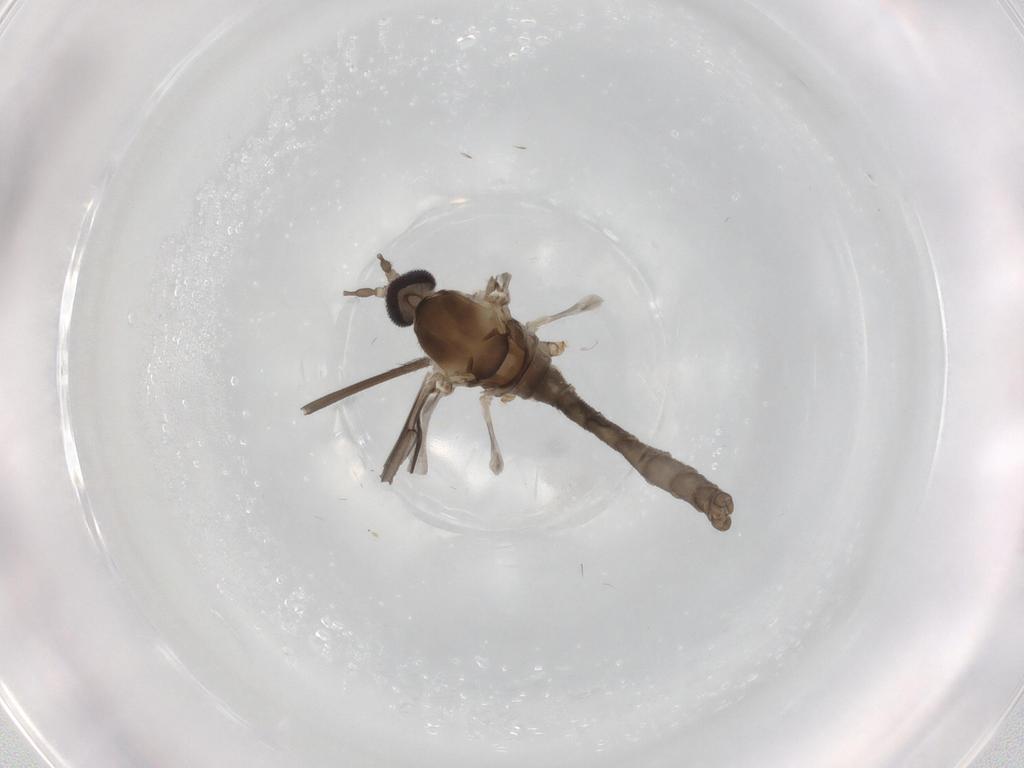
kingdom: Animalia
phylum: Arthropoda
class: Insecta
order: Diptera
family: Cecidomyiidae
